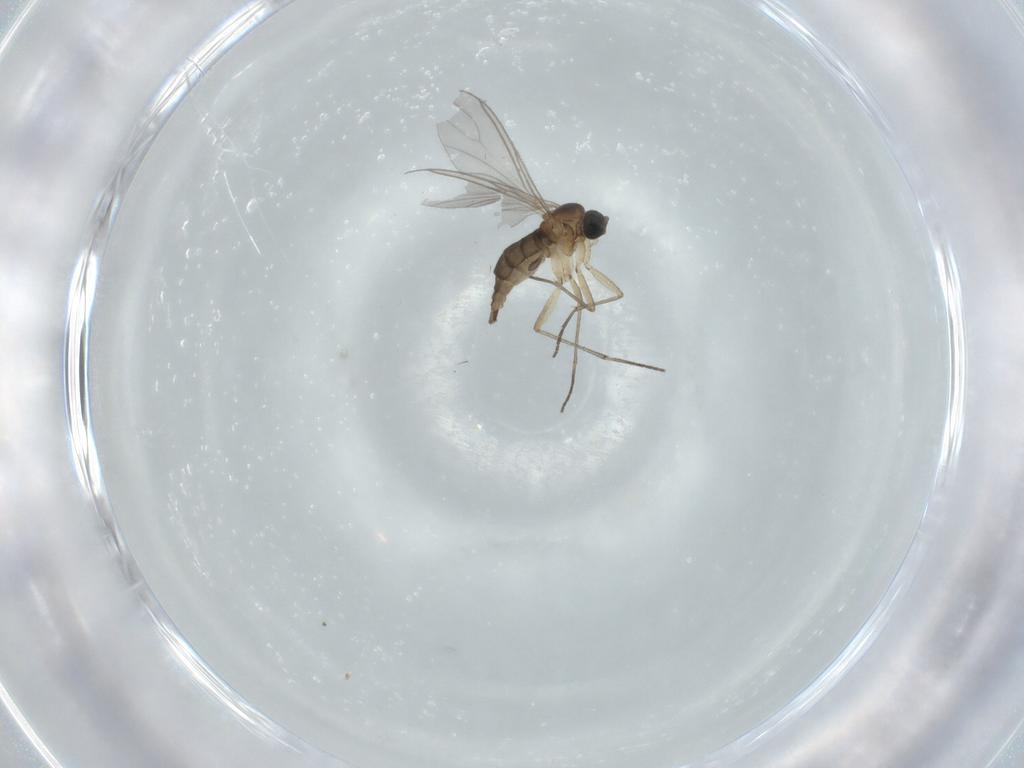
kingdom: Animalia
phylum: Arthropoda
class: Insecta
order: Diptera
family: Sciaridae
